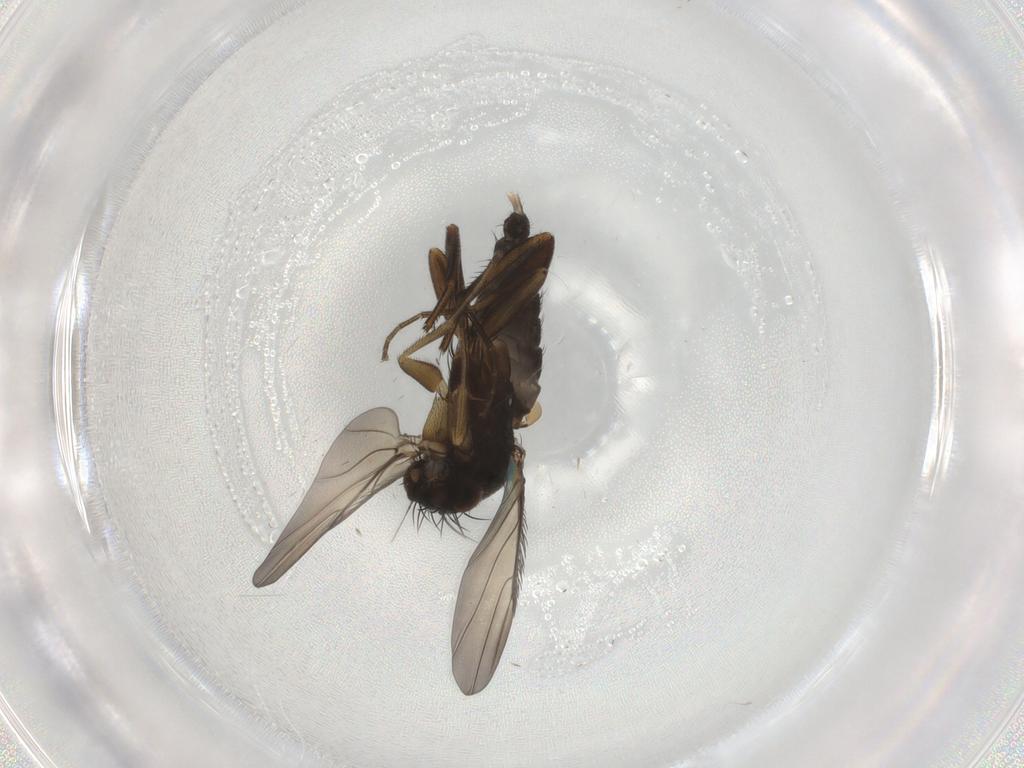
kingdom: Animalia
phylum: Arthropoda
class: Insecta
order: Diptera
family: Phoridae
